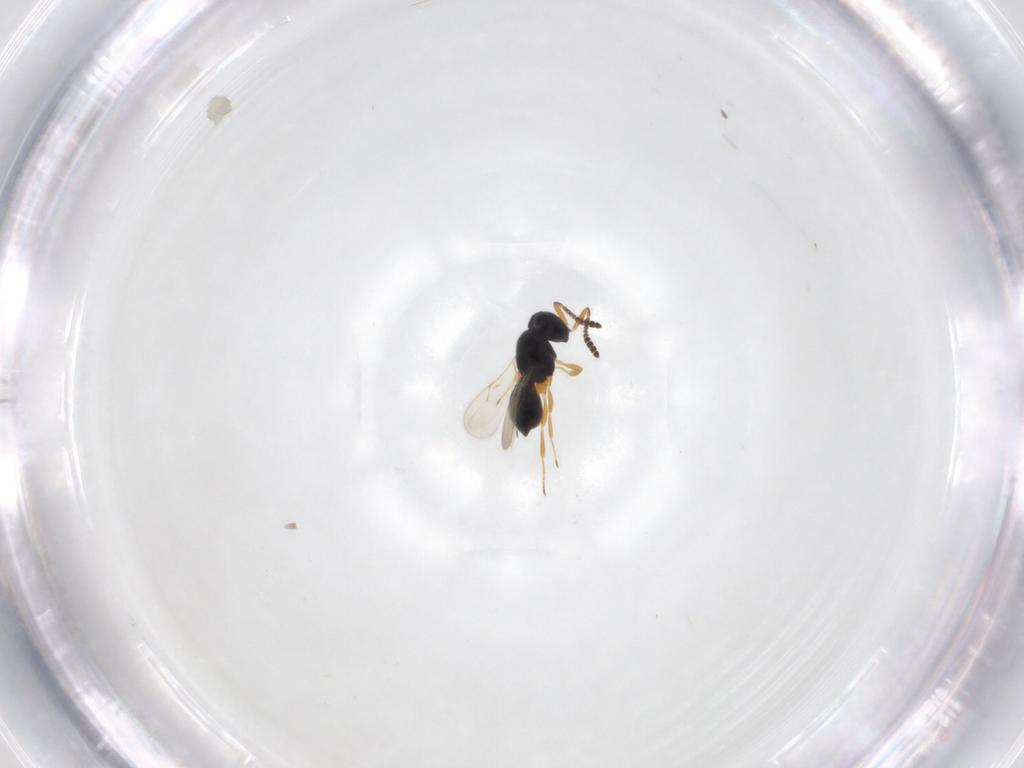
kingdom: Animalia
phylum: Arthropoda
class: Insecta
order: Hymenoptera
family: Scelionidae
